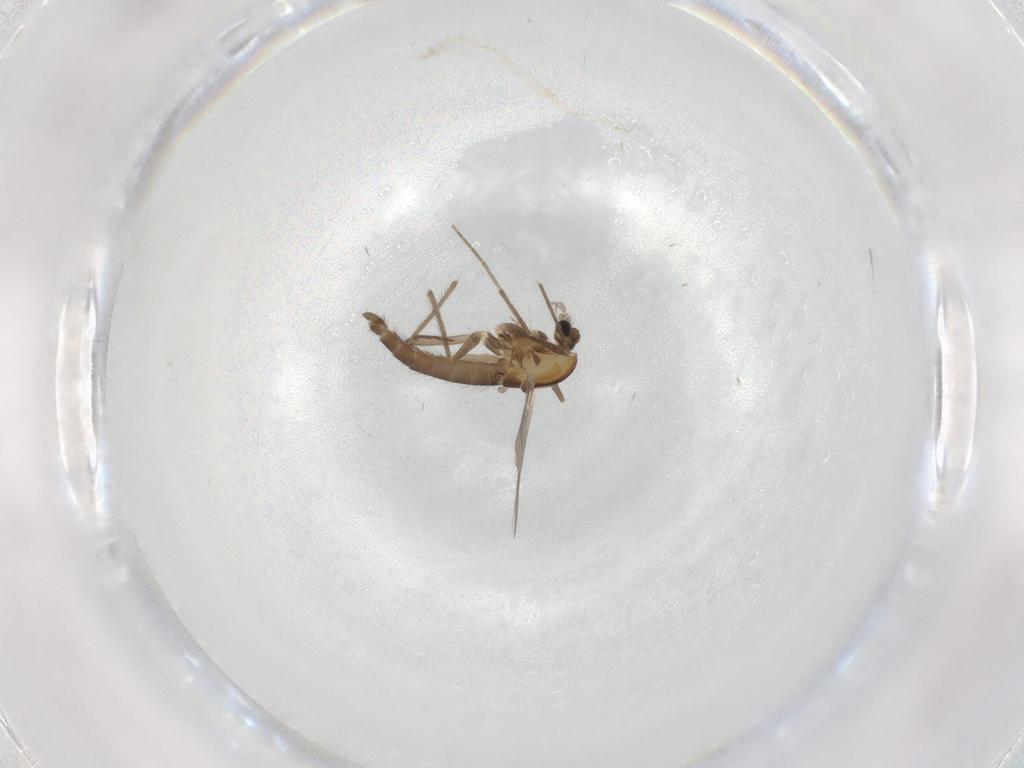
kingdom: Animalia
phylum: Arthropoda
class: Insecta
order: Diptera
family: Chironomidae
